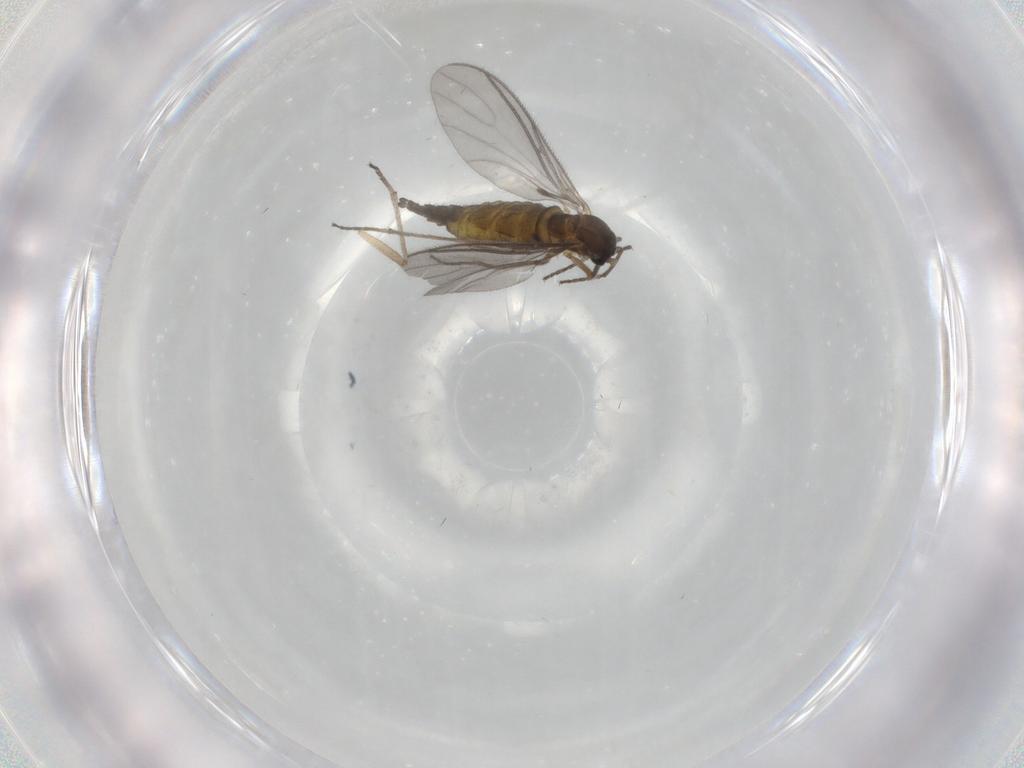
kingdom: Animalia
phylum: Arthropoda
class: Insecta
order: Diptera
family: Sciaridae
